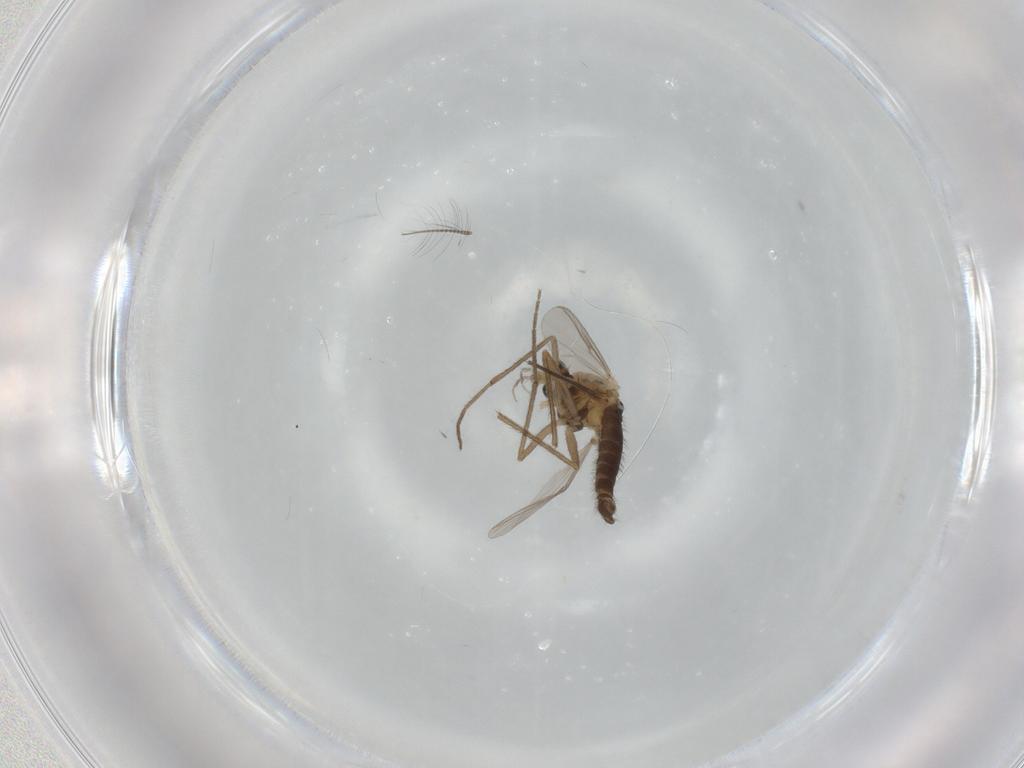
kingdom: Animalia
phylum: Arthropoda
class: Insecta
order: Diptera
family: Chironomidae
